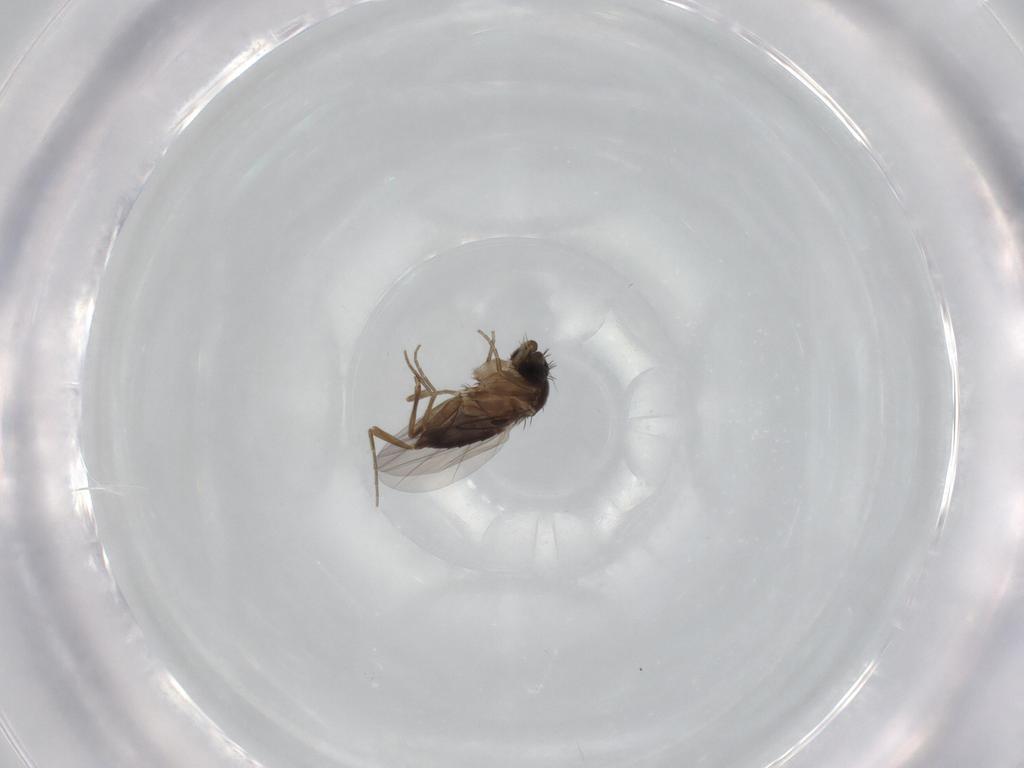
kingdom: Animalia
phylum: Arthropoda
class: Insecta
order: Diptera
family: Phoridae
